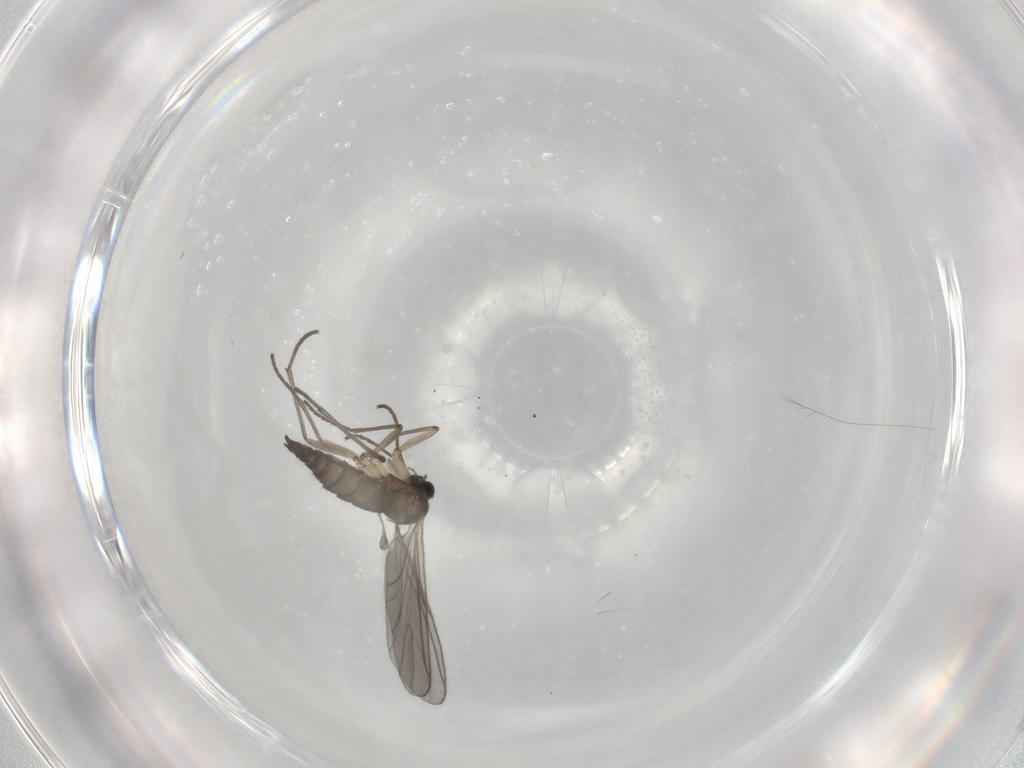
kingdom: Animalia
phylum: Arthropoda
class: Insecta
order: Diptera
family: Sciaridae
